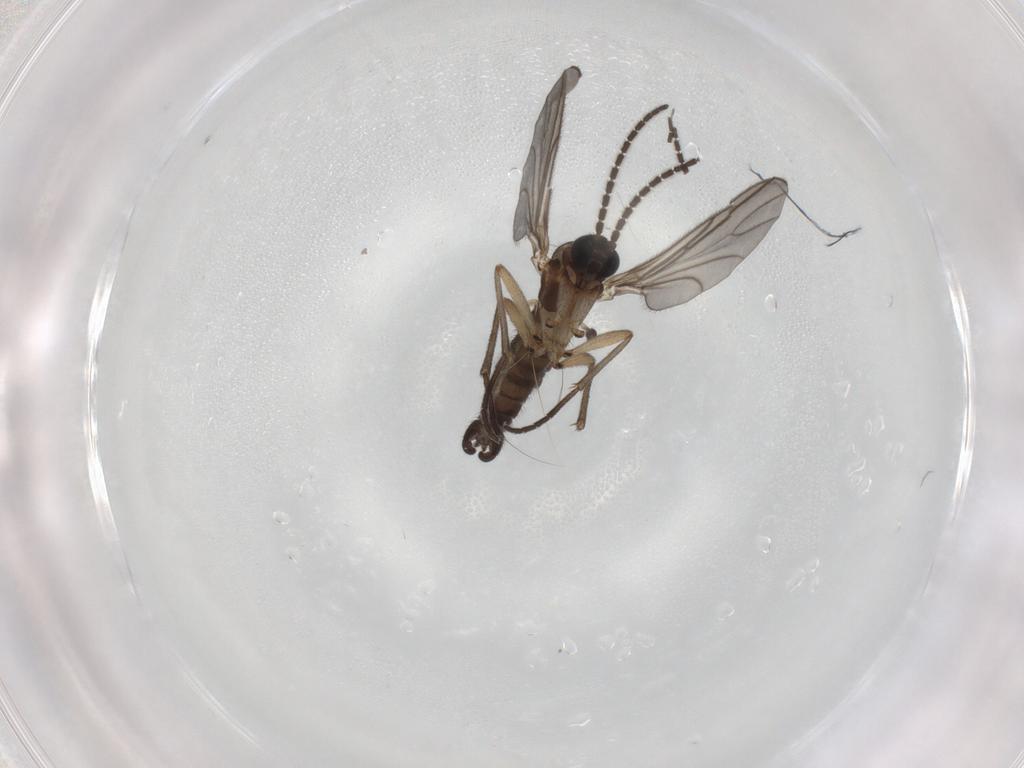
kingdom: Animalia
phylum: Arthropoda
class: Insecta
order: Diptera
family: Sciaridae
